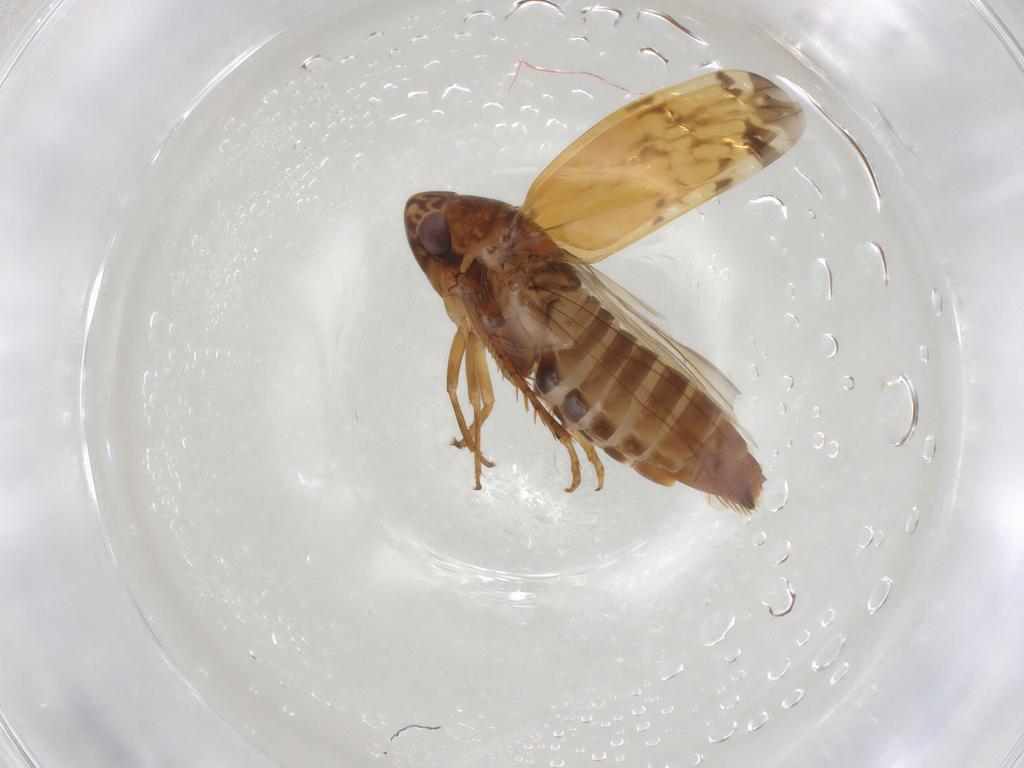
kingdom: Animalia
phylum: Arthropoda
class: Insecta
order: Hemiptera
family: Cicadellidae
